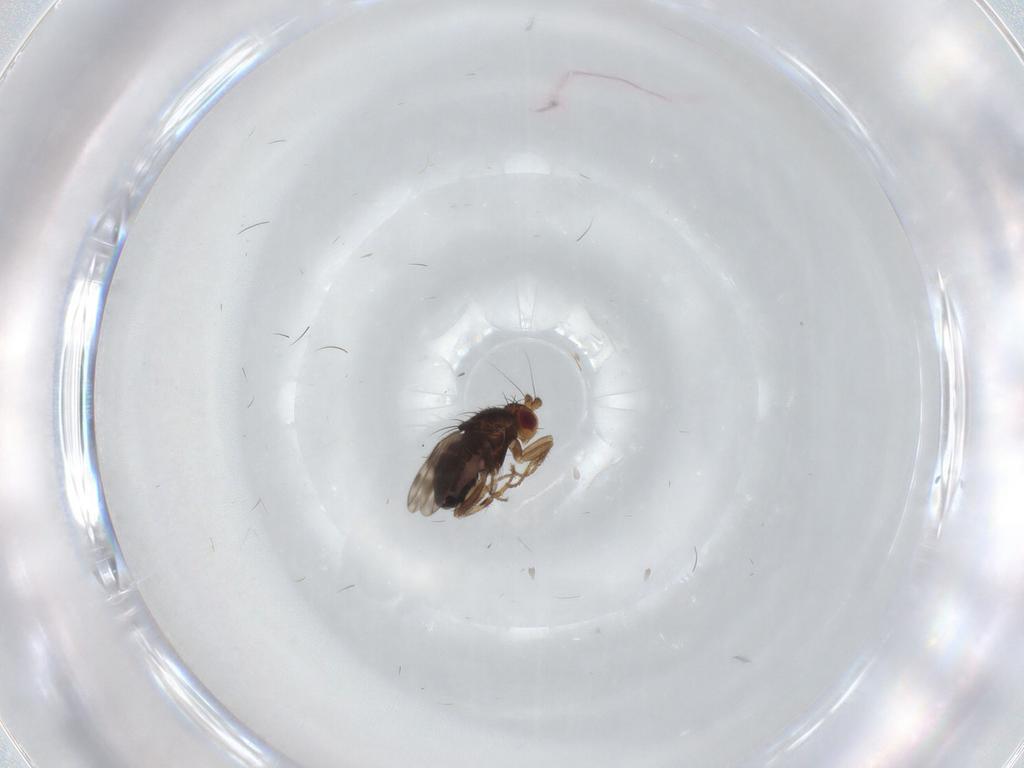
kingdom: Animalia
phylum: Arthropoda
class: Insecta
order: Diptera
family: Sphaeroceridae
